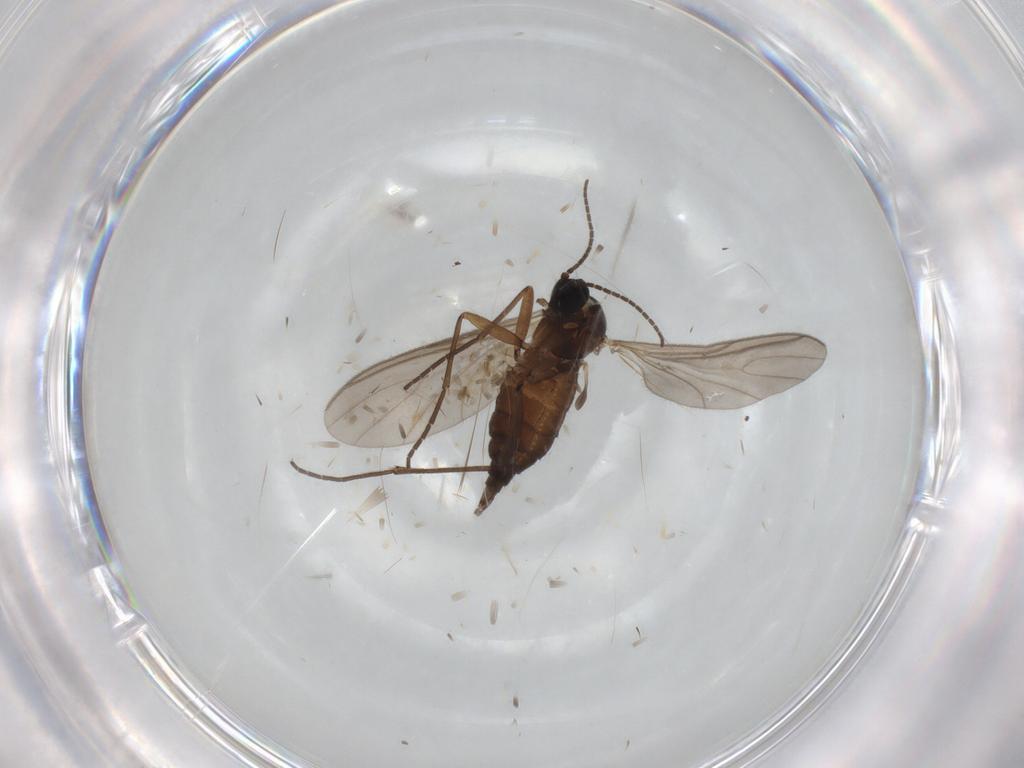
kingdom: Animalia
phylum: Arthropoda
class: Insecta
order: Diptera
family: Sciaridae
